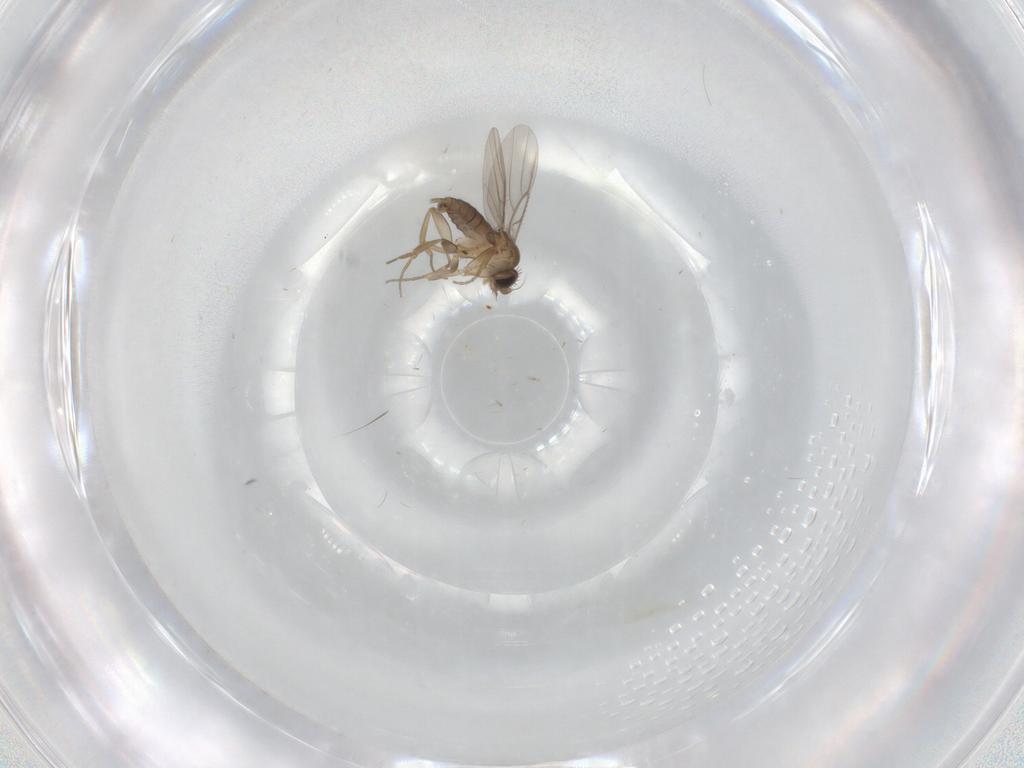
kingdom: Animalia
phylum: Arthropoda
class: Insecta
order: Diptera
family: Cecidomyiidae
